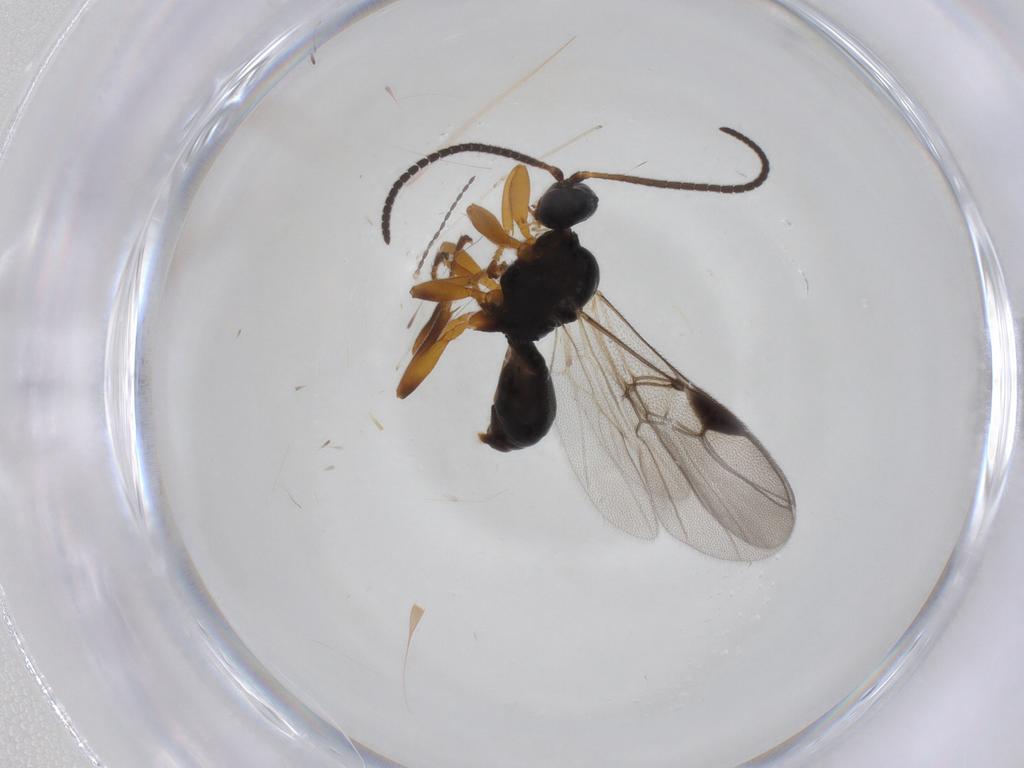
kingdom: Animalia
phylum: Arthropoda
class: Insecta
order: Hymenoptera
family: Braconidae
